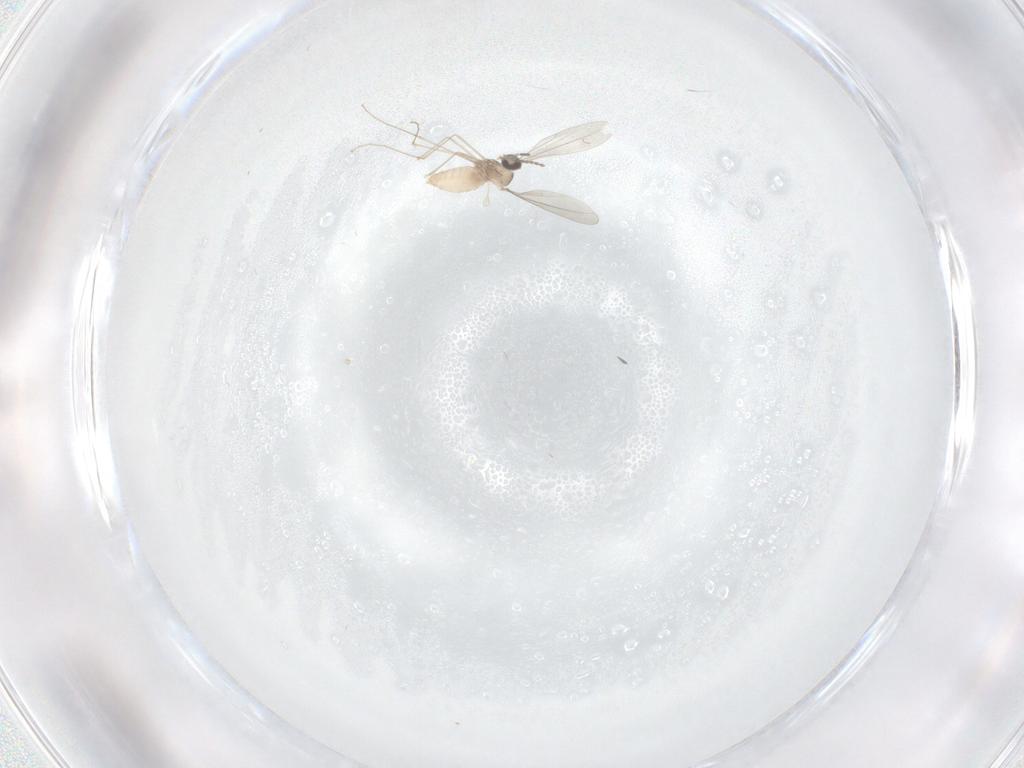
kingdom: Animalia
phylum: Arthropoda
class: Insecta
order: Diptera
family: Cecidomyiidae
